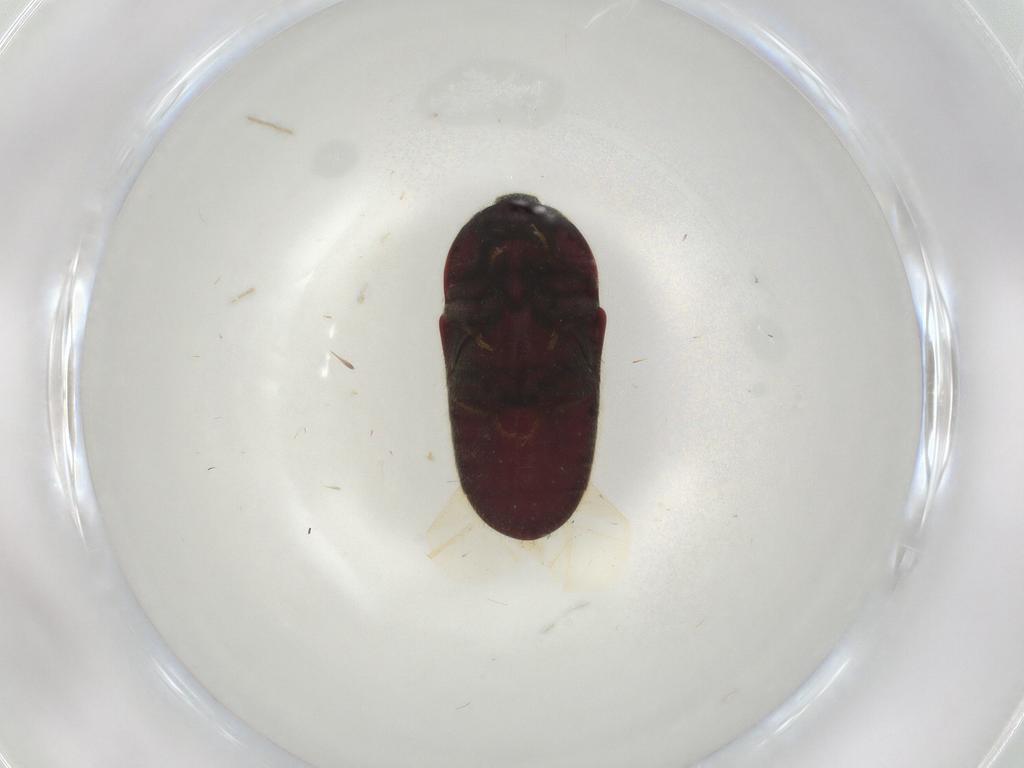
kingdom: Animalia
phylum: Arthropoda
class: Insecta
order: Coleoptera
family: Throscidae
